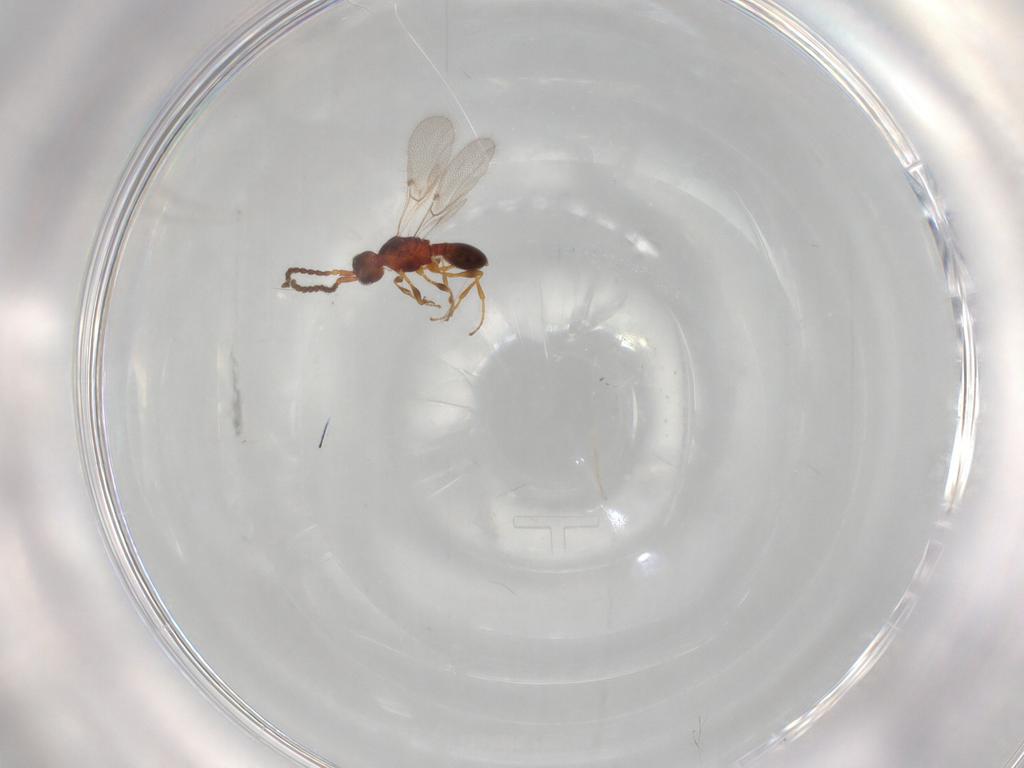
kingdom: Animalia
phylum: Arthropoda
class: Insecta
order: Hymenoptera
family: Diapriidae
